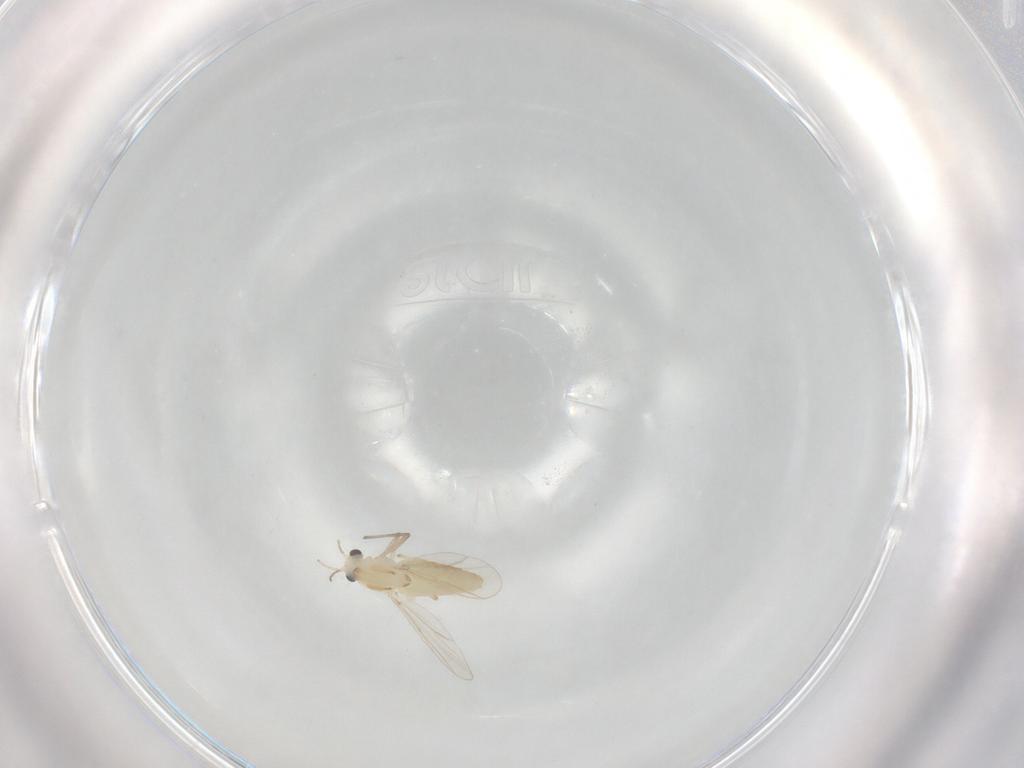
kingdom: Animalia
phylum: Arthropoda
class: Insecta
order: Diptera
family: Chironomidae
